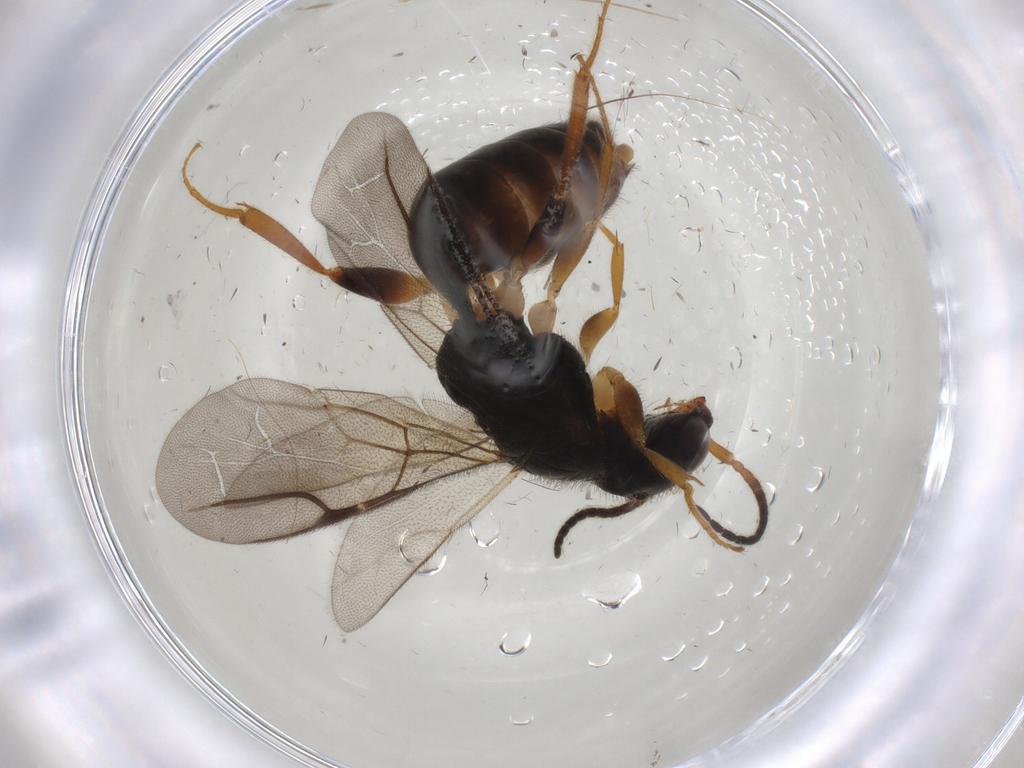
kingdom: Animalia
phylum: Arthropoda
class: Insecta
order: Hymenoptera
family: Bethylidae
